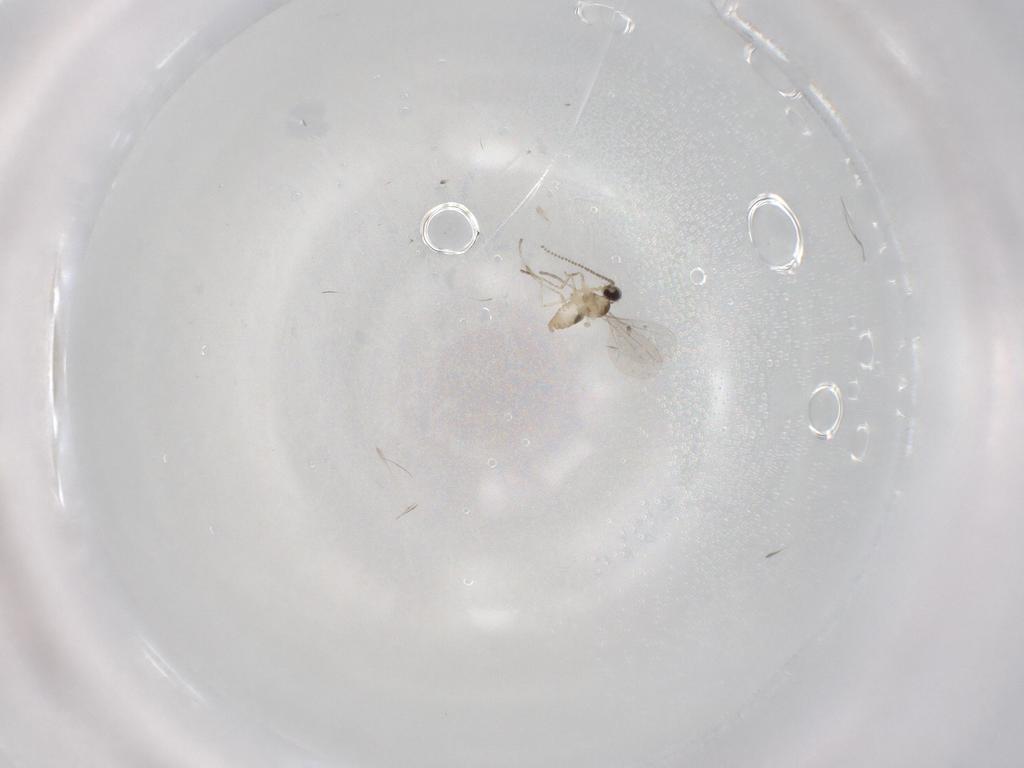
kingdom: Animalia
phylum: Arthropoda
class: Insecta
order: Diptera
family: Cecidomyiidae
